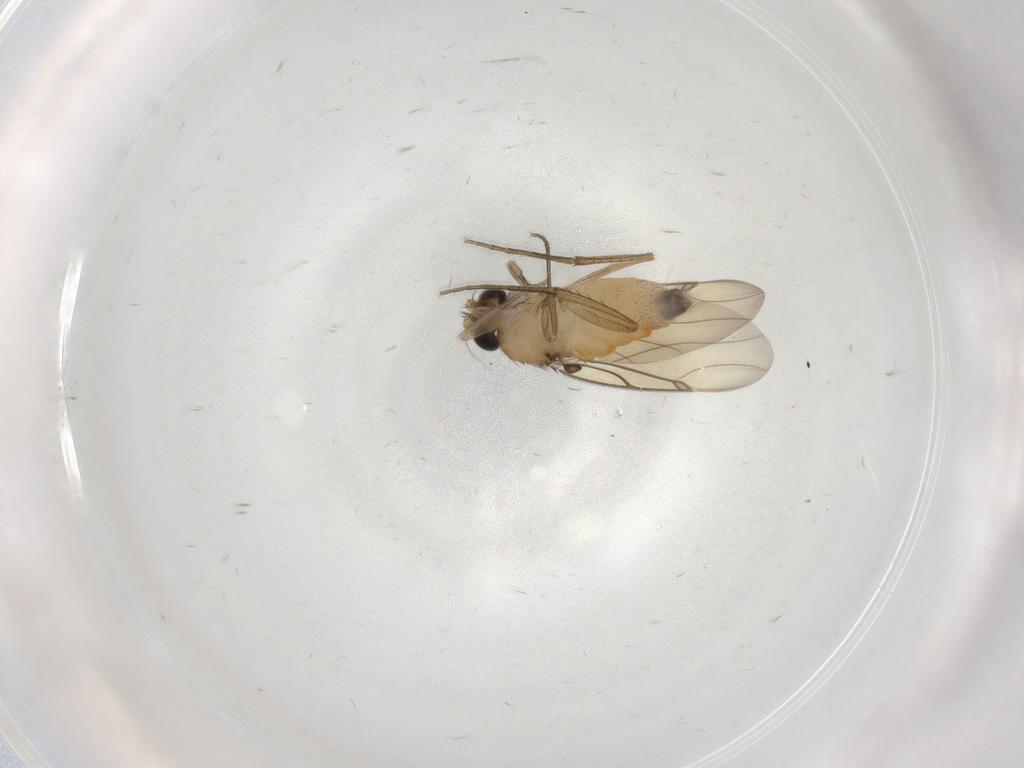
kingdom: Animalia
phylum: Arthropoda
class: Insecta
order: Diptera
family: Phoridae
